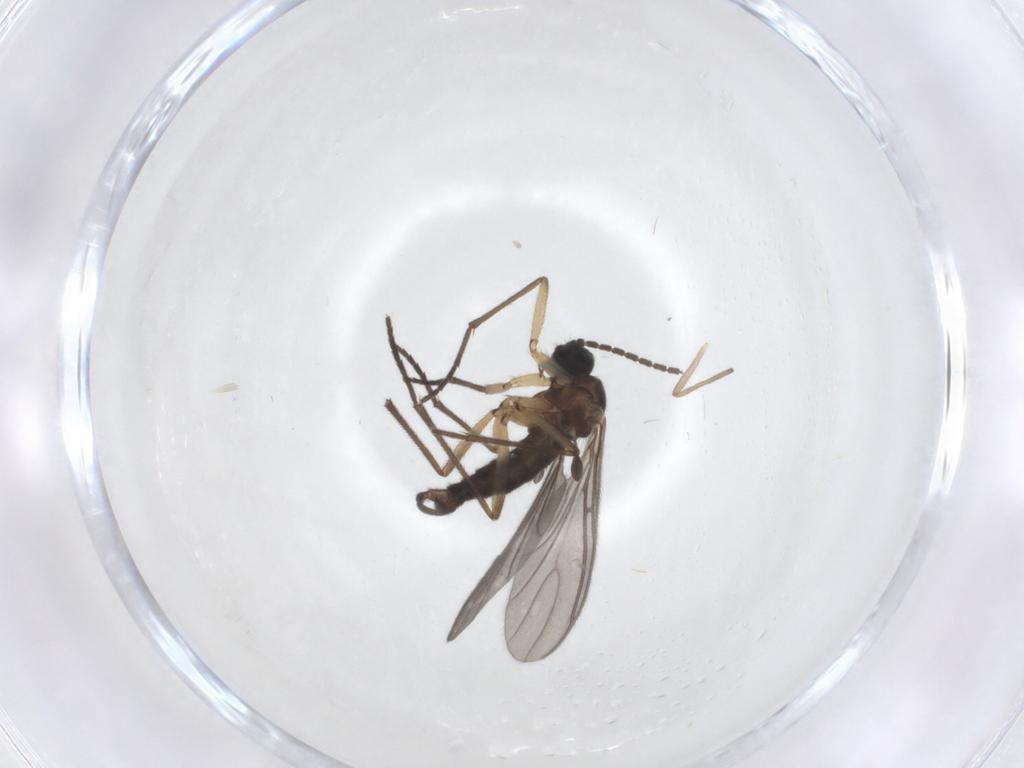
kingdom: Animalia
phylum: Arthropoda
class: Insecta
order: Diptera
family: Sciaridae
